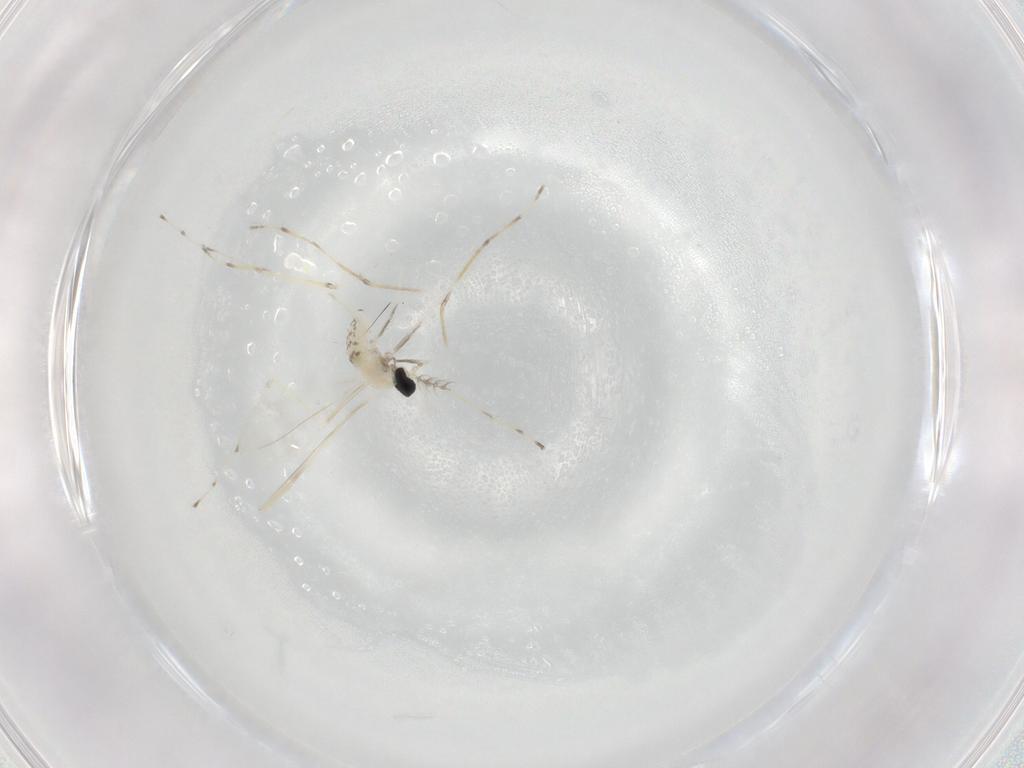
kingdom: Animalia
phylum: Arthropoda
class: Insecta
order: Diptera
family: Cecidomyiidae
